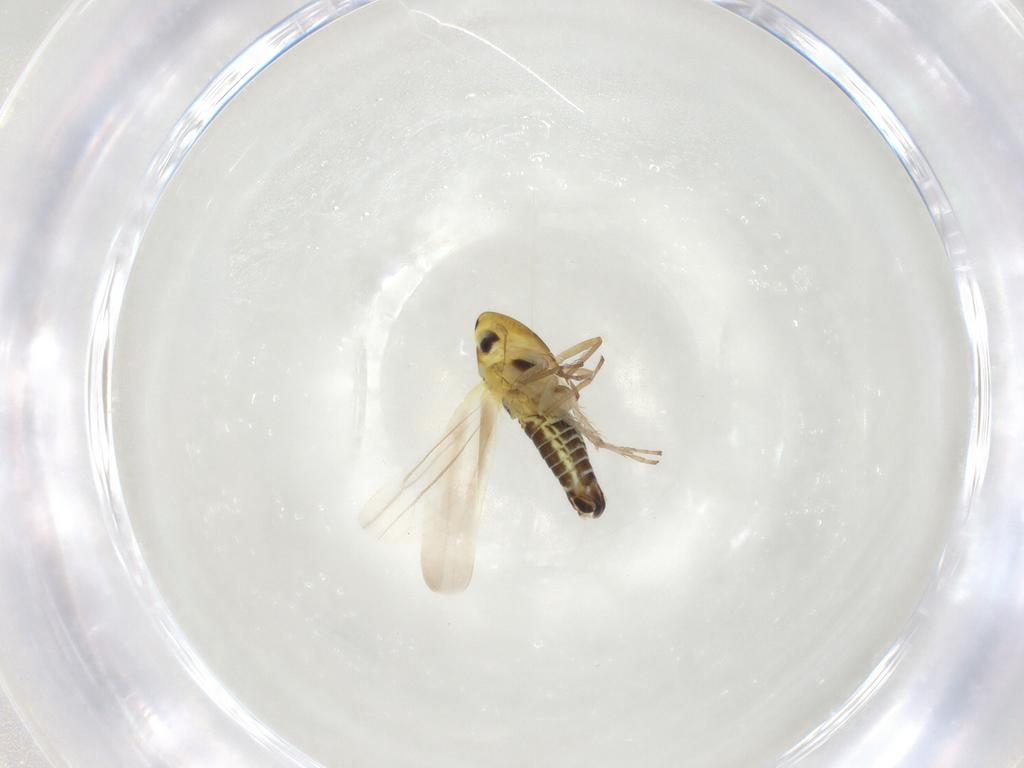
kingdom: Animalia
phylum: Arthropoda
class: Insecta
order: Hemiptera
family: Cicadellidae
